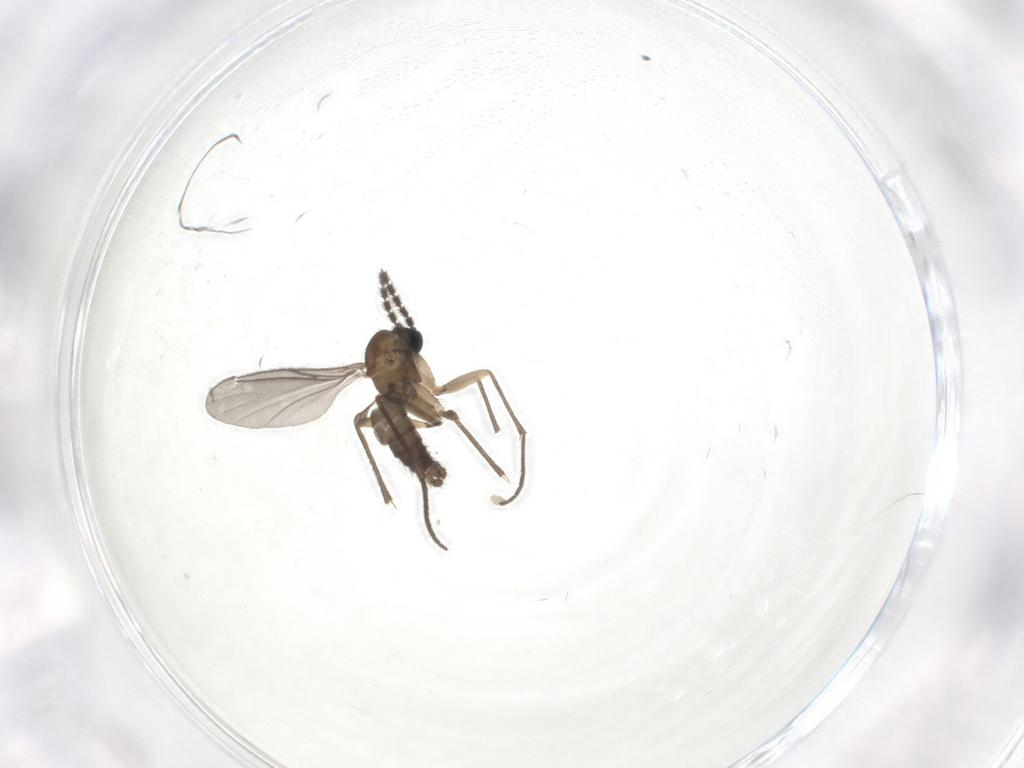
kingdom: Animalia
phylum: Arthropoda
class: Insecta
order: Diptera
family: Sciaridae
